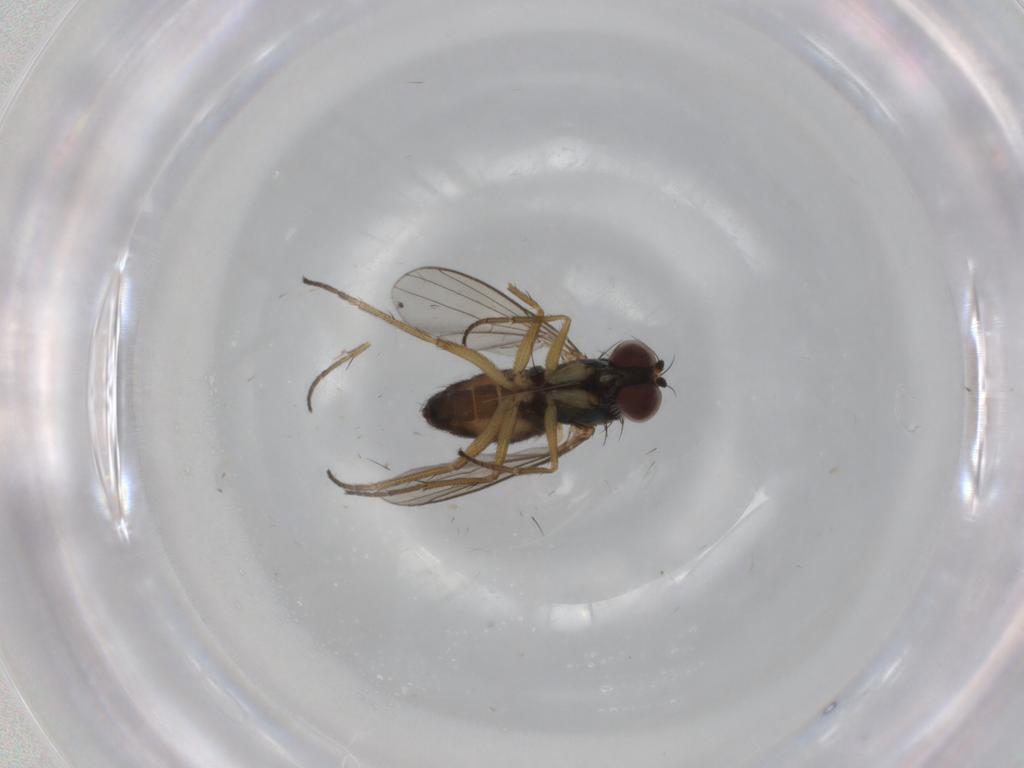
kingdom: Animalia
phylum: Arthropoda
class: Insecta
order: Diptera
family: Dolichopodidae
